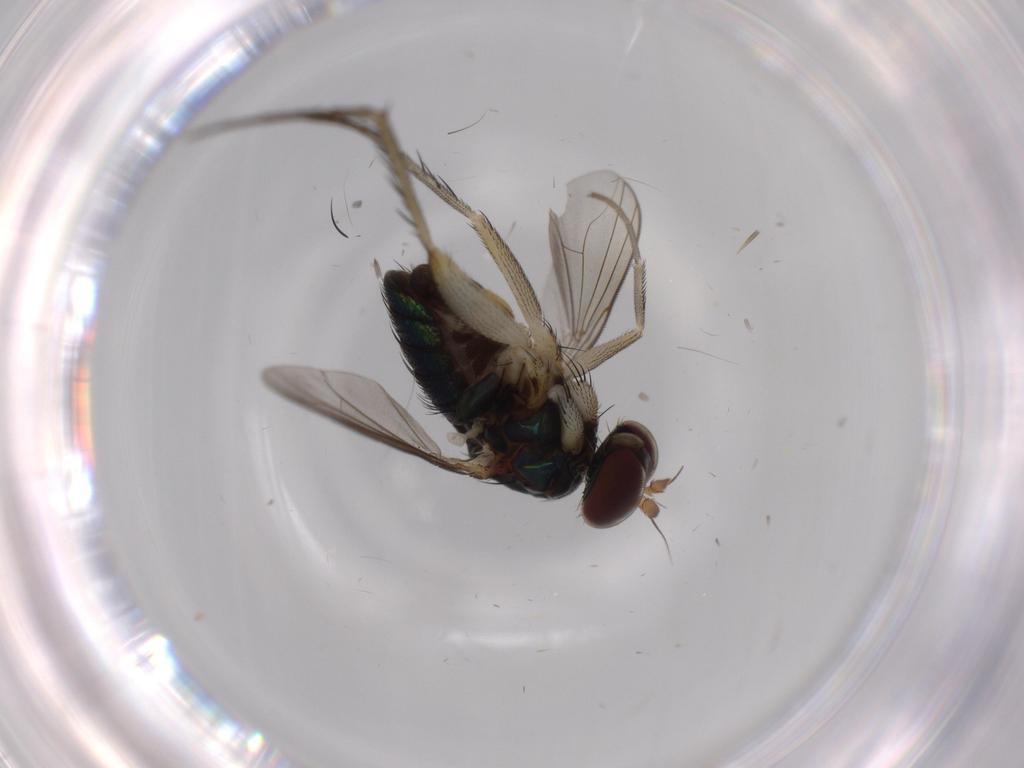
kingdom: Animalia
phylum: Arthropoda
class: Insecta
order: Diptera
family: Dolichopodidae
